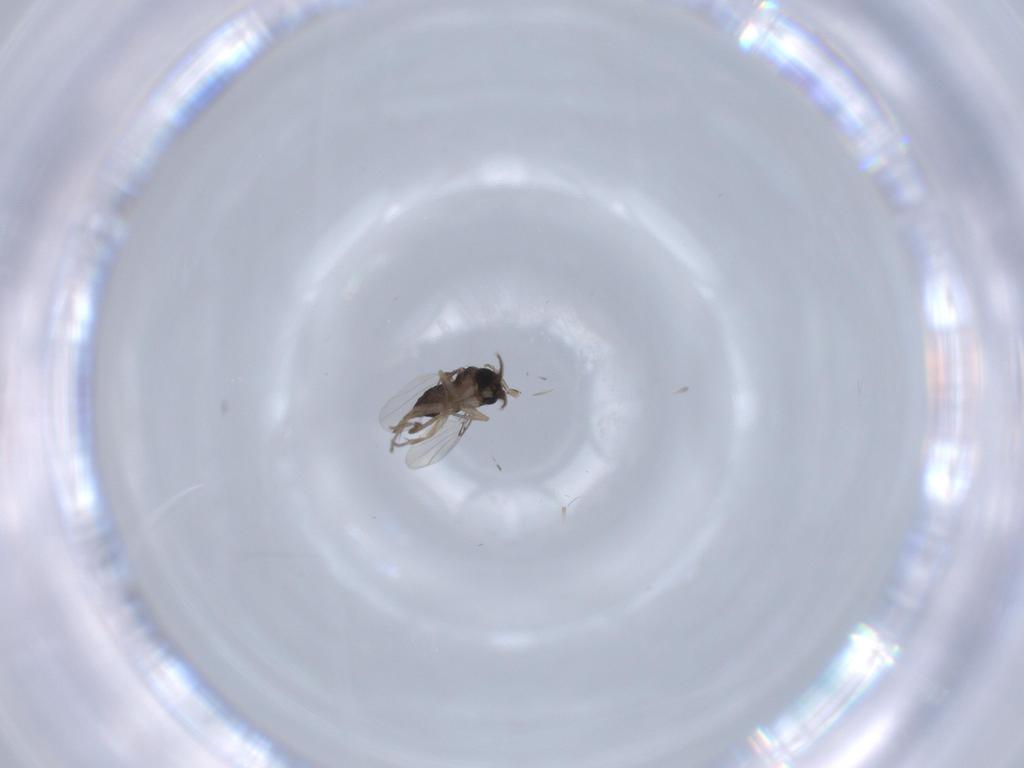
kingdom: Animalia
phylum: Arthropoda
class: Insecta
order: Diptera
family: Phoridae
